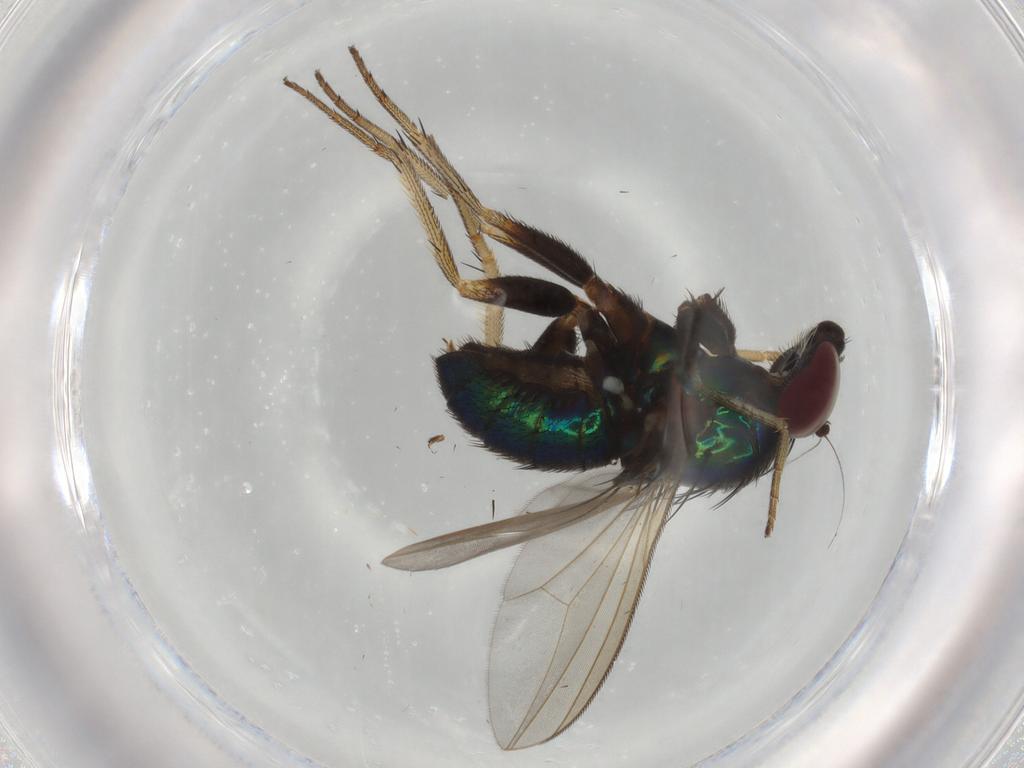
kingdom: Animalia
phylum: Arthropoda
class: Insecta
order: Diptera
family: Dolichopodidae
